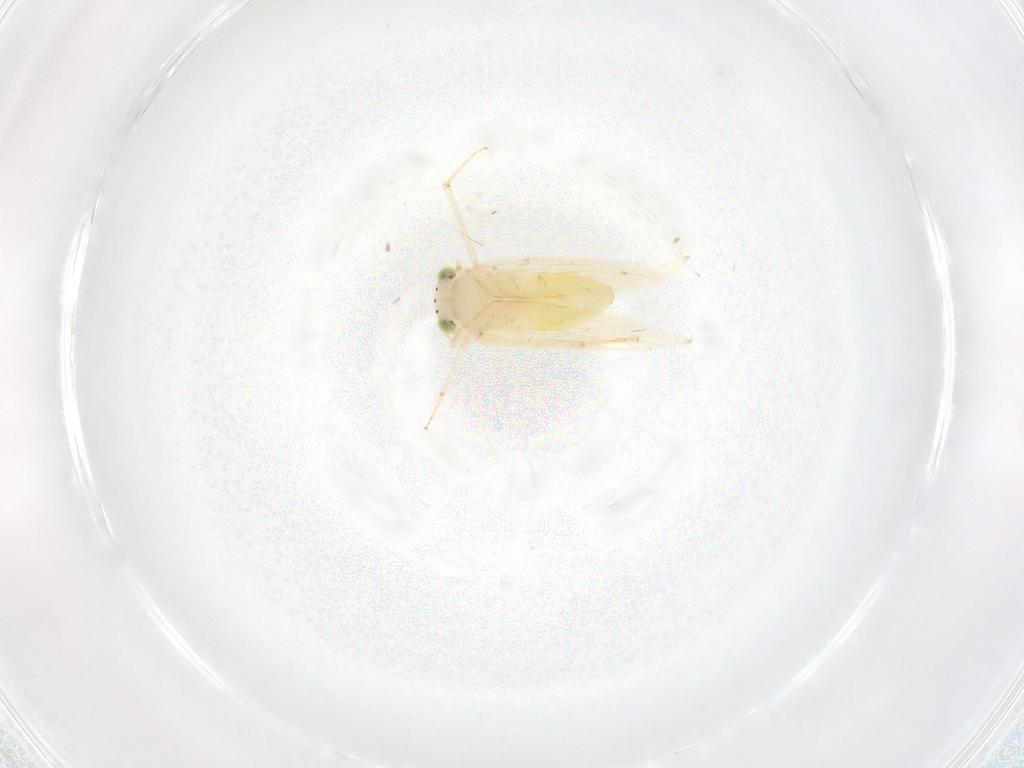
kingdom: Animalia
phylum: Arthropoda
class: Insecta
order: Psocodea
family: Lepidopsocidae
